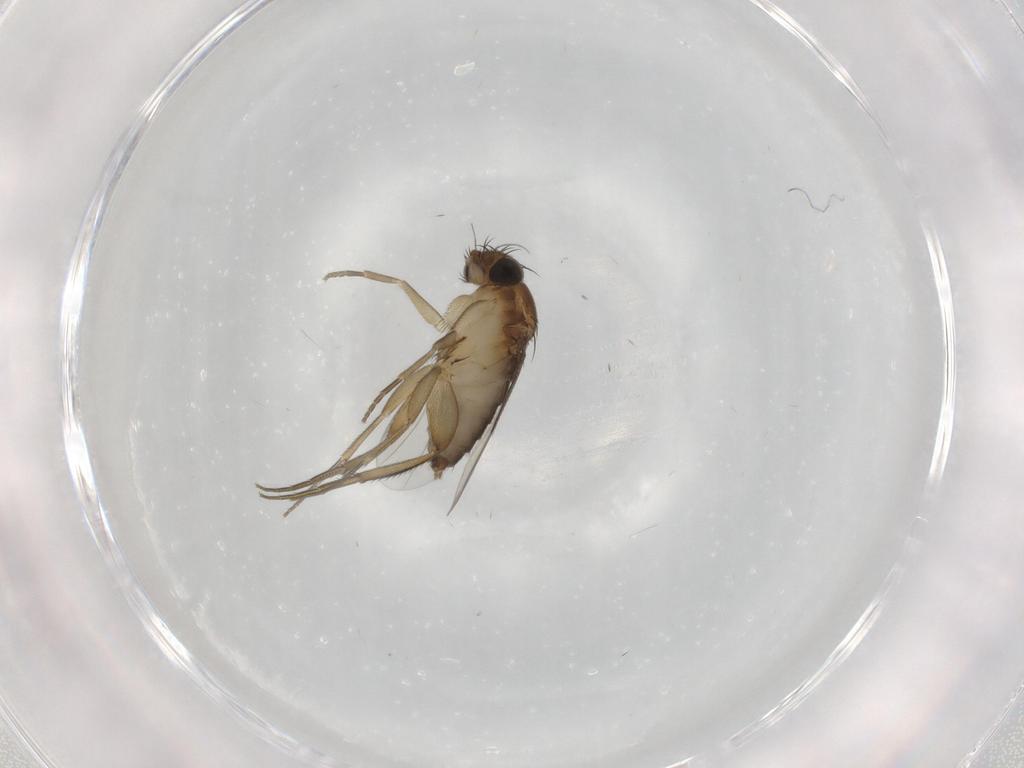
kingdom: Animalia
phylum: Arthropoda
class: Insecta
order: Diptera
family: Phoridae
